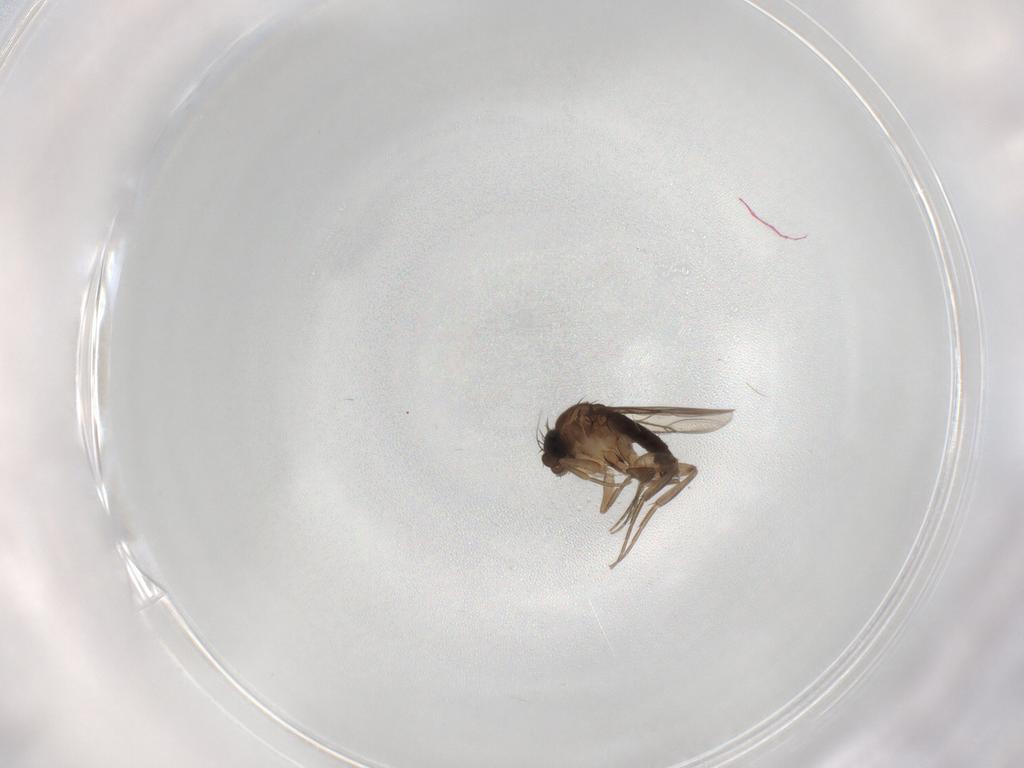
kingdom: Animalia
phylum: Arthropoda
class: Insecta
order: Diptera
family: Phoridae
